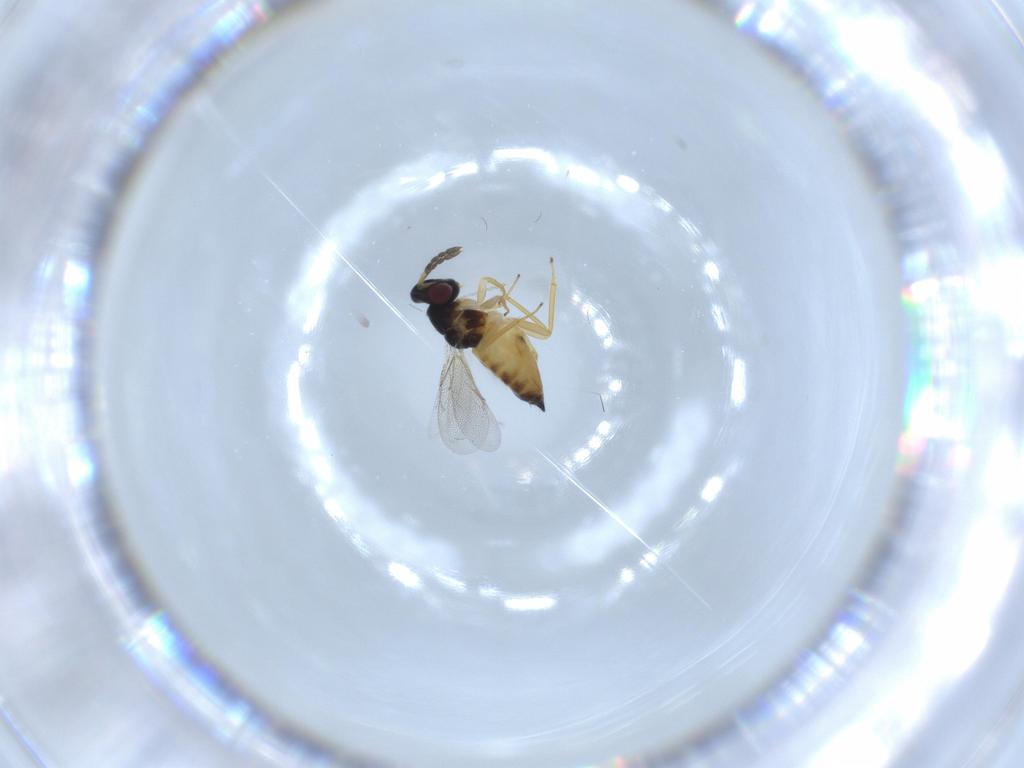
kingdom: Animalia
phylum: Arthropoda
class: Insecta
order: Hymenoptera
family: Eulophidae
